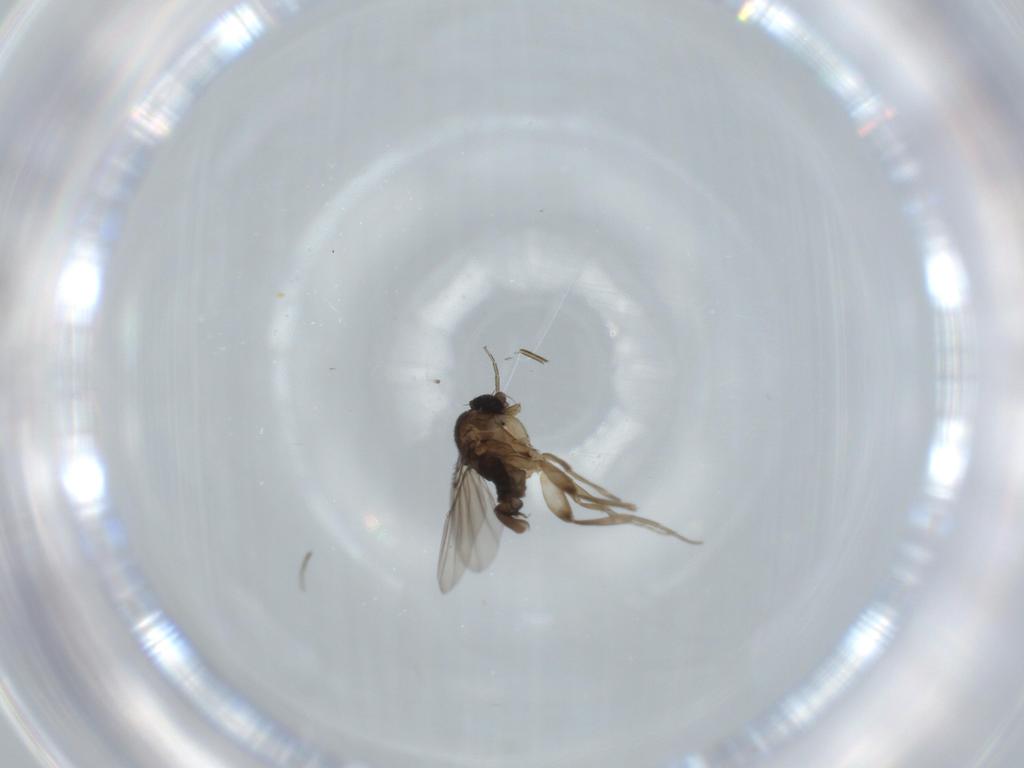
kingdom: Animalia
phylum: Arthropoda
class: Insecta
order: Diptera
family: Phoridae
